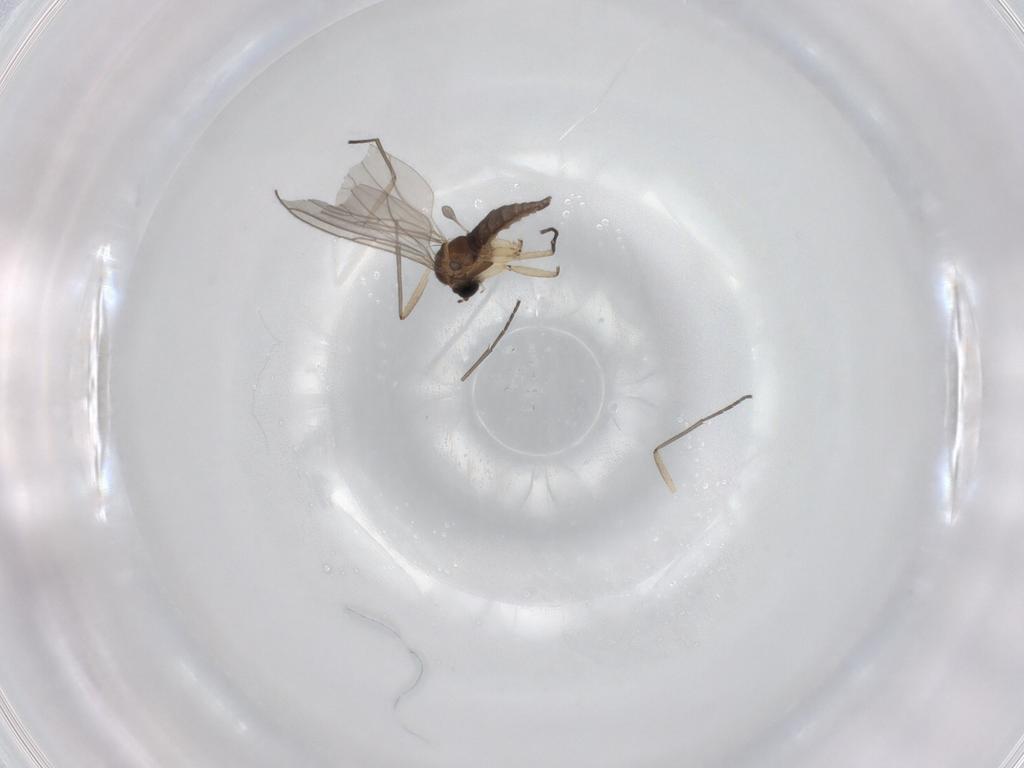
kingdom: Animalia
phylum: Arthropoda
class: Insecta
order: Diptera
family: Sciaridae
